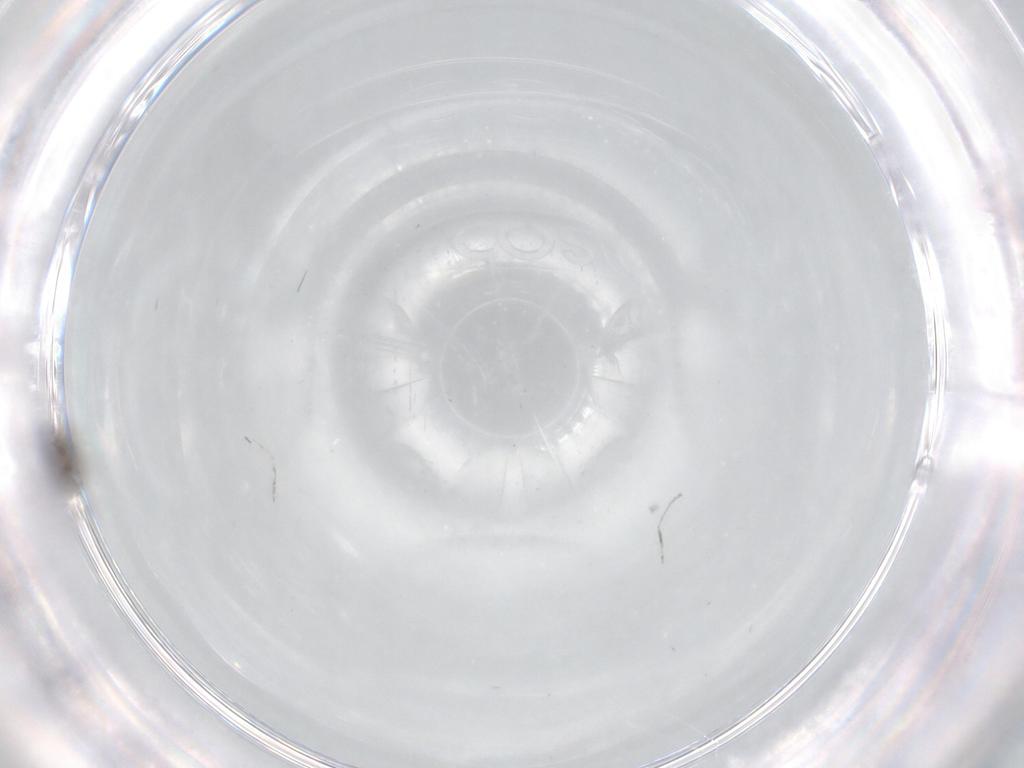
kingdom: Animalia
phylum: Arthropoda
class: Insecta
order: Diptera
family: Cecidomyiidae
